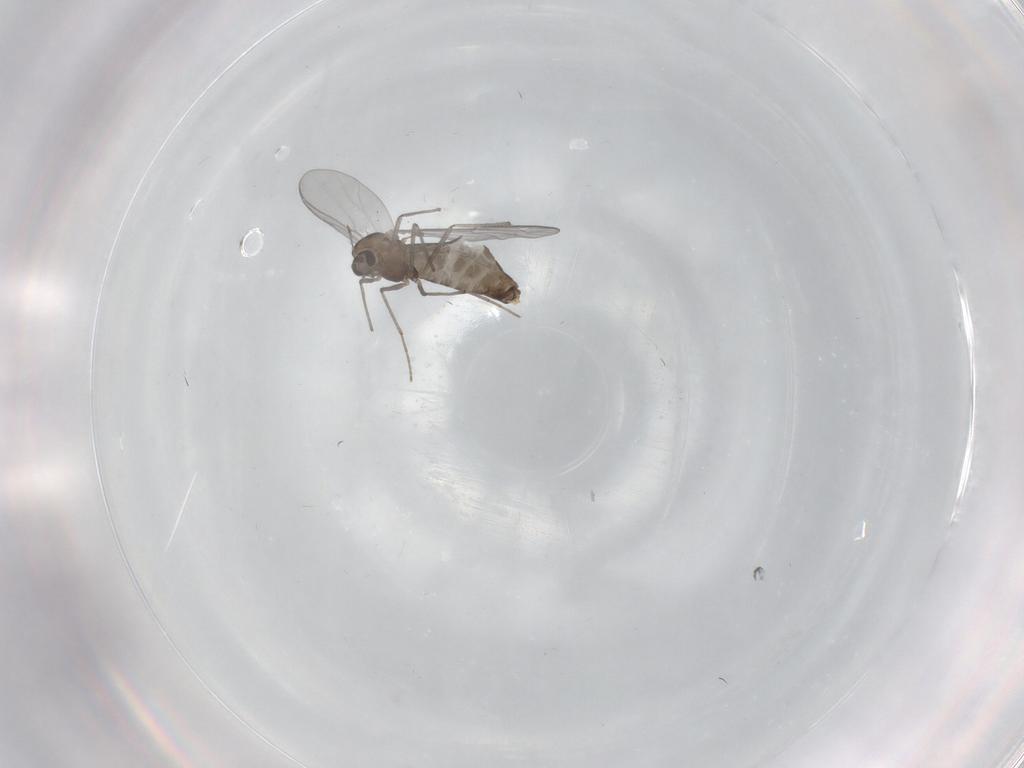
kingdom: Animalia
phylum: Arthropoda
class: Insecta
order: Diptera
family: Chironomidae
